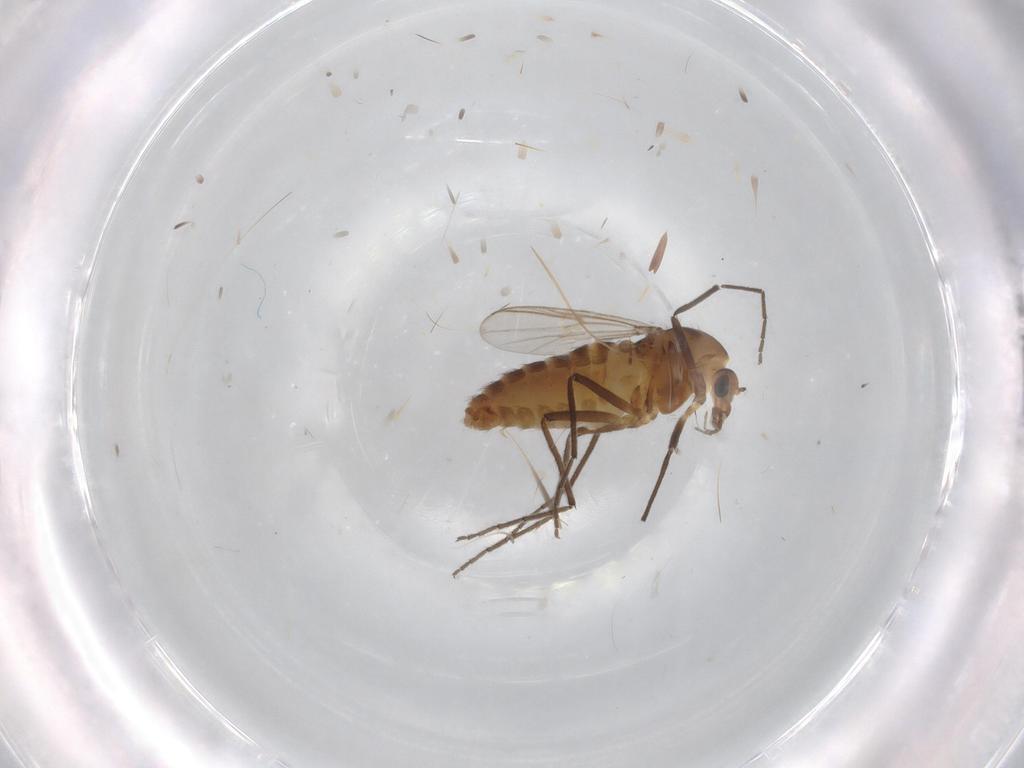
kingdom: Animalia
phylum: Arthropoda
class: Insecta
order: Diptera
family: Chironomidae
